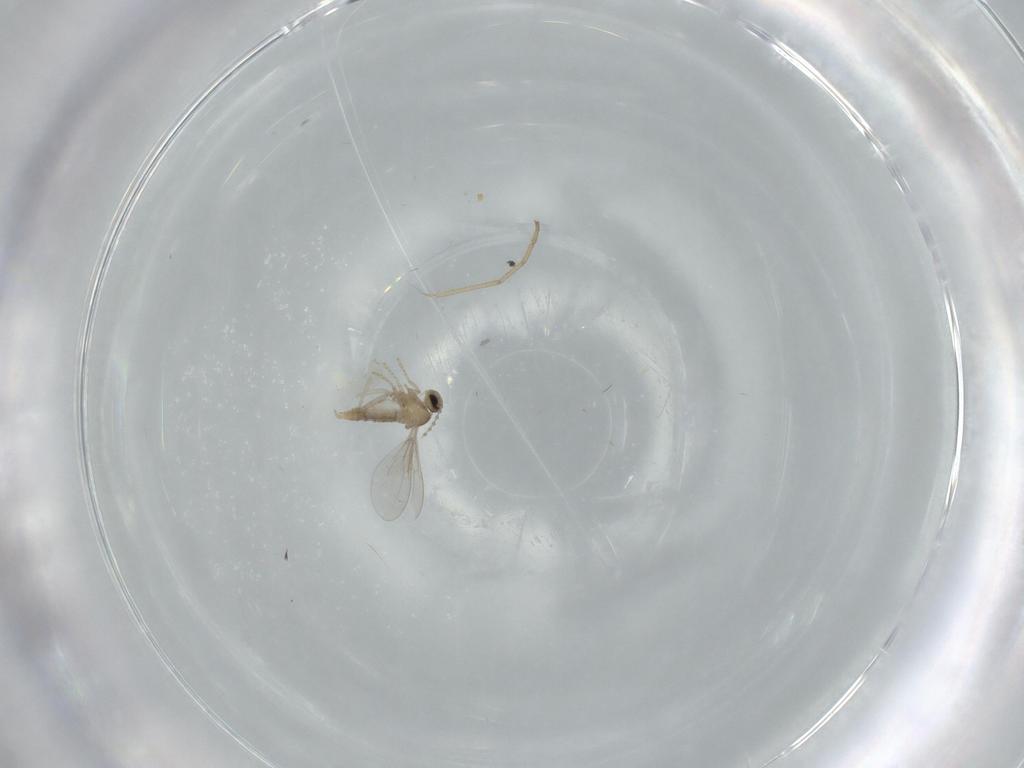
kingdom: Animalia
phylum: Arthropoda
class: Insecta
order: Diptera
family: Cecidomyiidae
